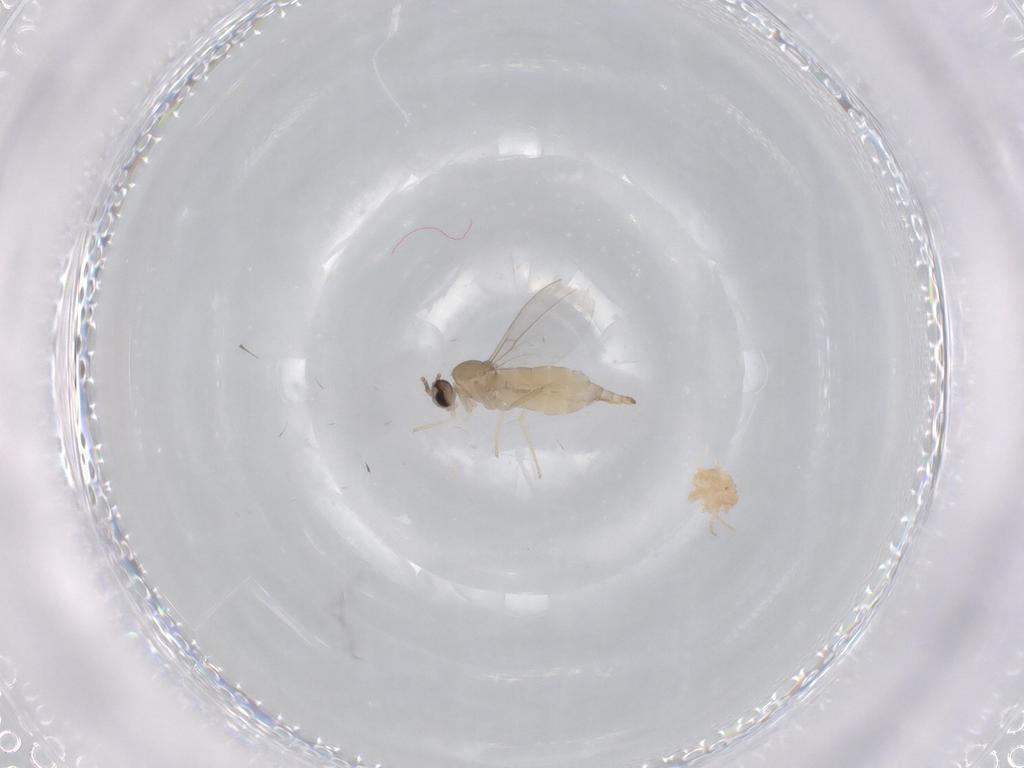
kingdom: Animalia
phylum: Arthropoda
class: Insecta
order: Diptera
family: Cecidomyiidae
